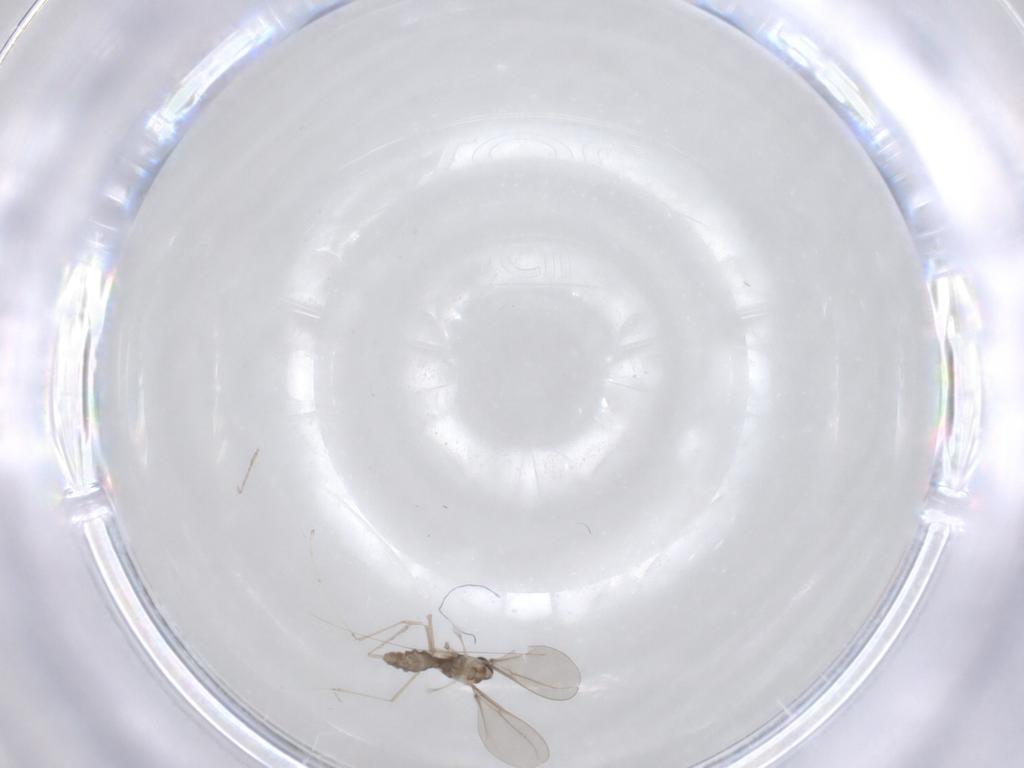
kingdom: Animalia
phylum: Arthropoda
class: Insecta
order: Diptera
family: Cecidomyiidae
